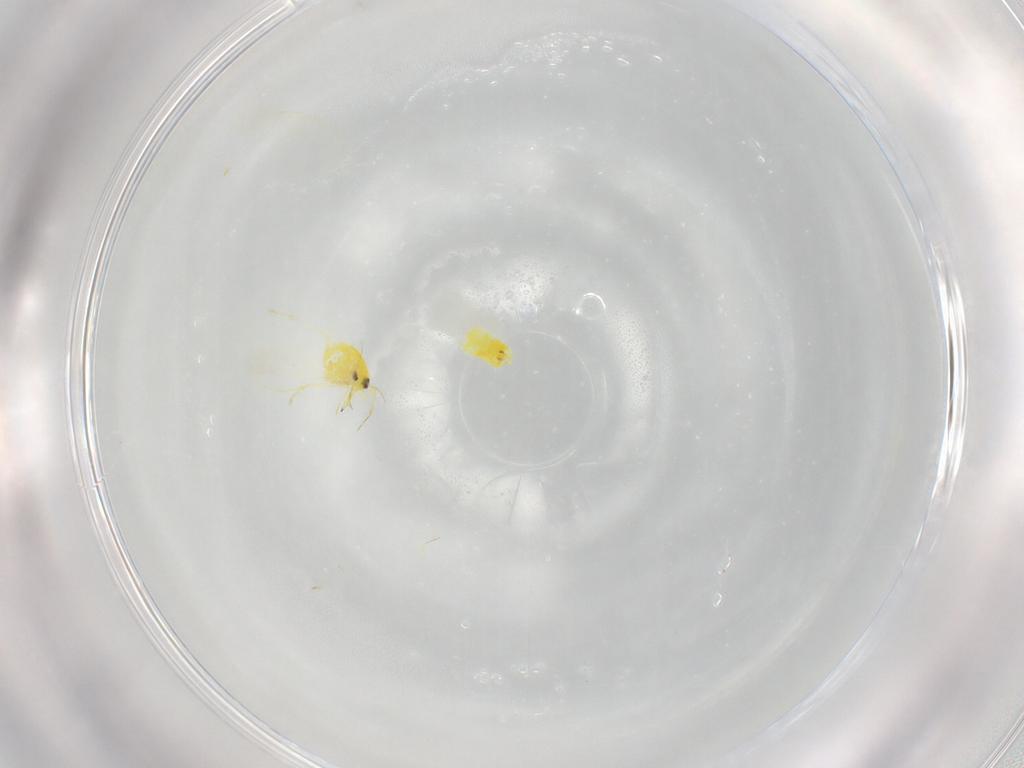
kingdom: Animalia
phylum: Arthropoda
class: Insecta
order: Hemiptera
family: Aleyrodidae
